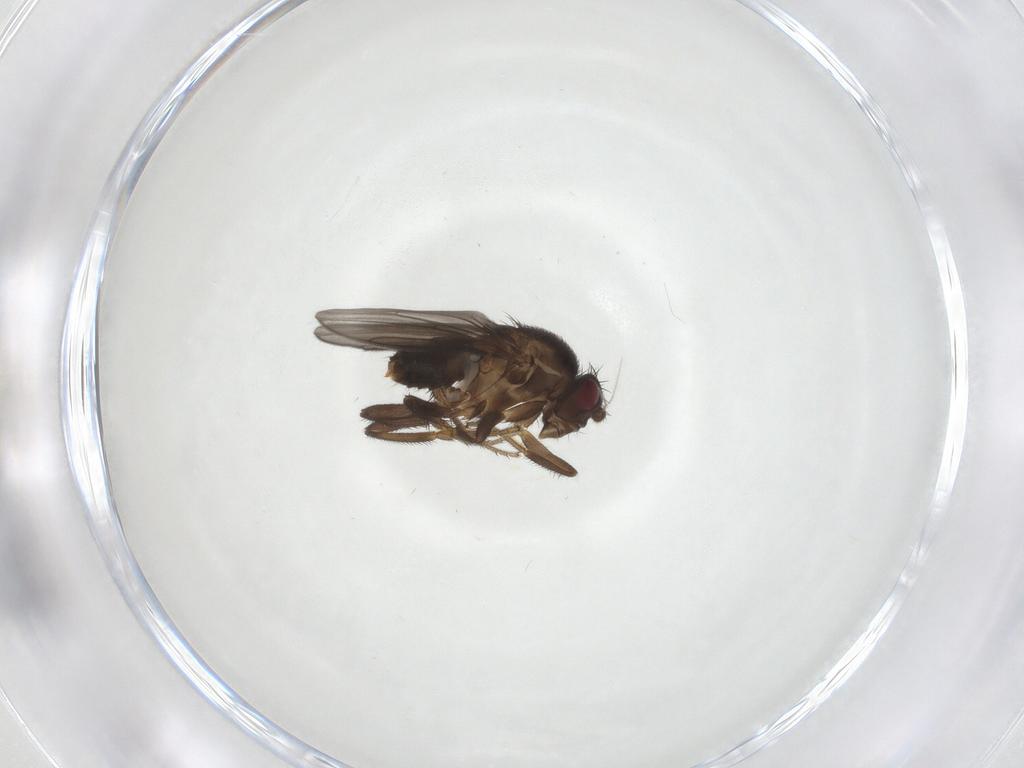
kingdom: Animalia
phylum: Arthropoda
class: Insecta
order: Diptera
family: Sphaeroceridae
